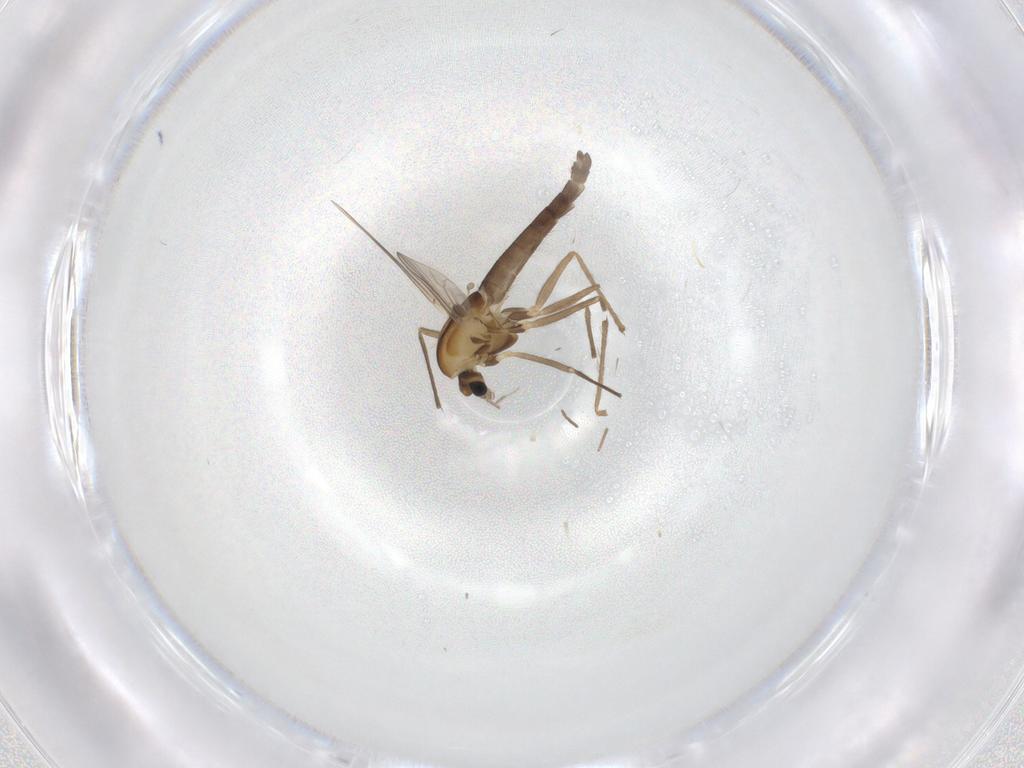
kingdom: Animalia
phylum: Arthropoda
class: Insecta
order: Diptera
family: Chironomidae
